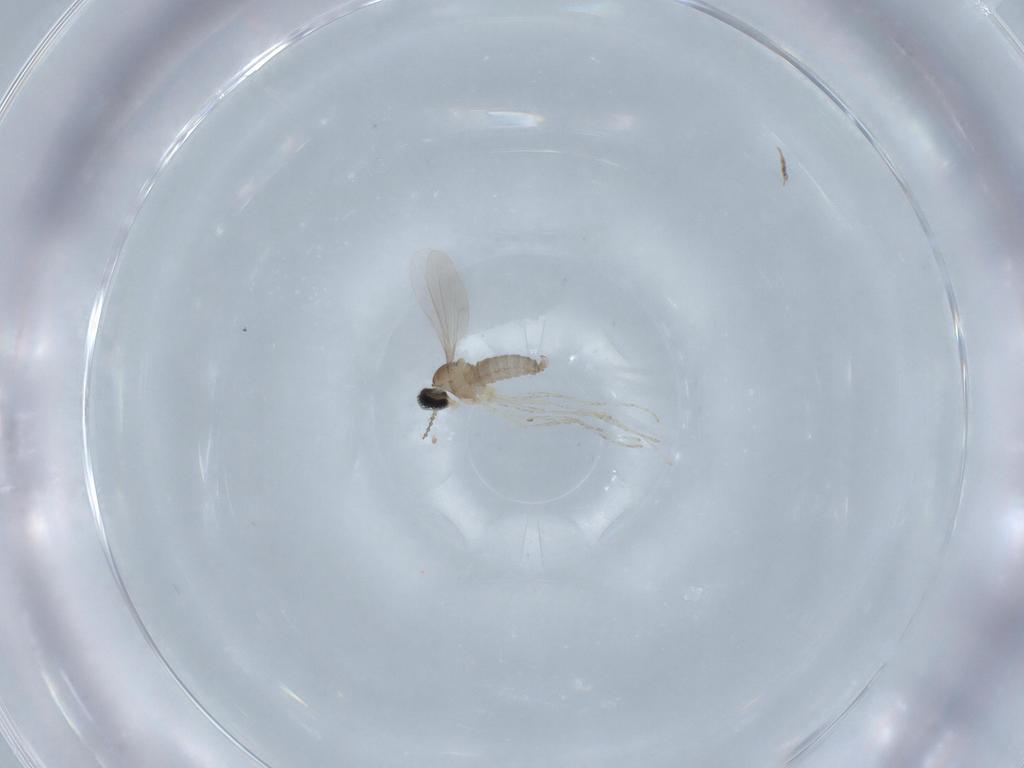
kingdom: Animalia
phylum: Arthropoda
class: Insecta
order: Diptera
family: Cecidomyiidae
